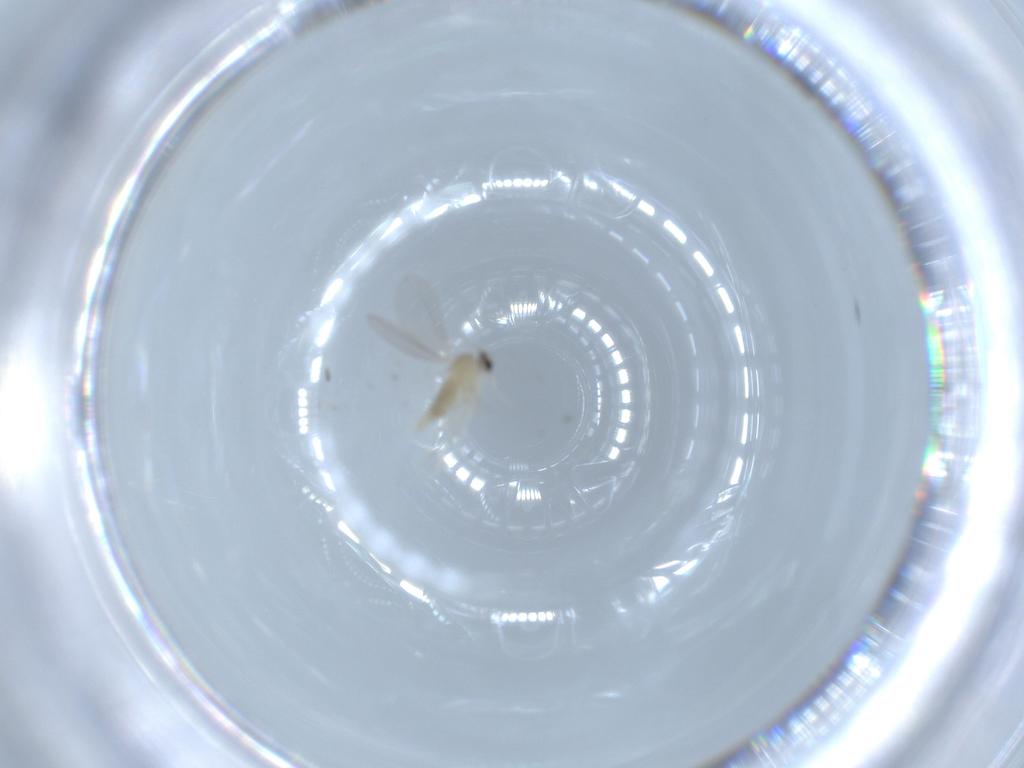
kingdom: Animalia
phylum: Arthropoda
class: Insecta
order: Diptera
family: Cecidomyiidae
